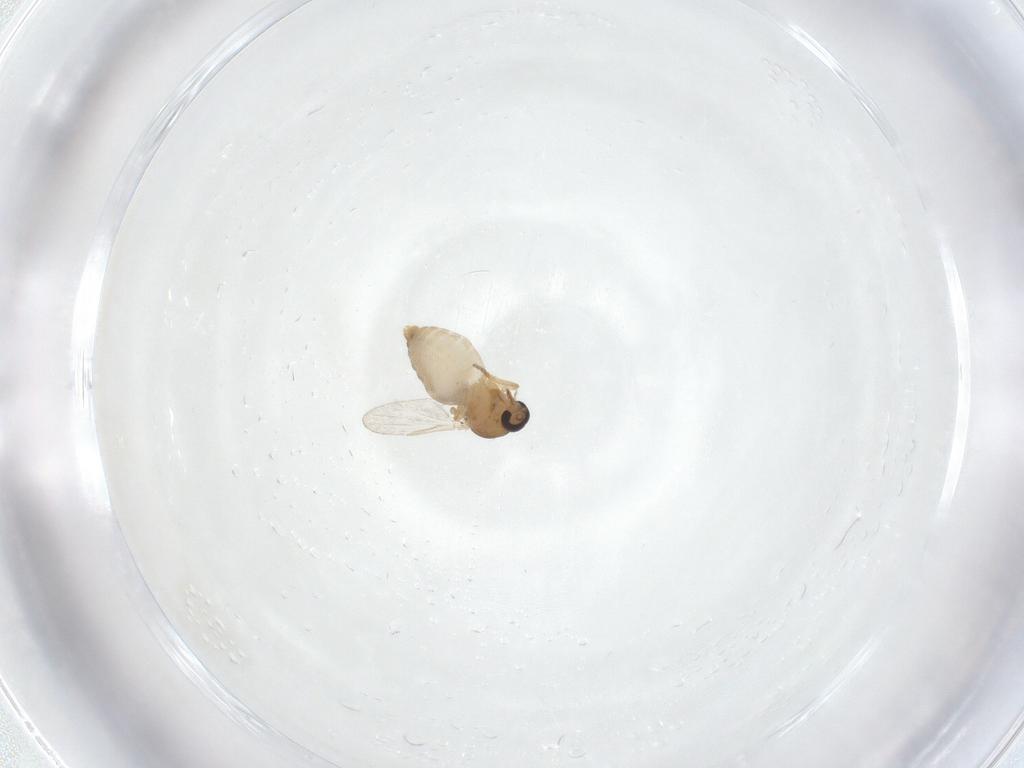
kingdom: Animalia
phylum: Arthropoda
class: Insecta
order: Diptera
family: Ceratopogonidae
